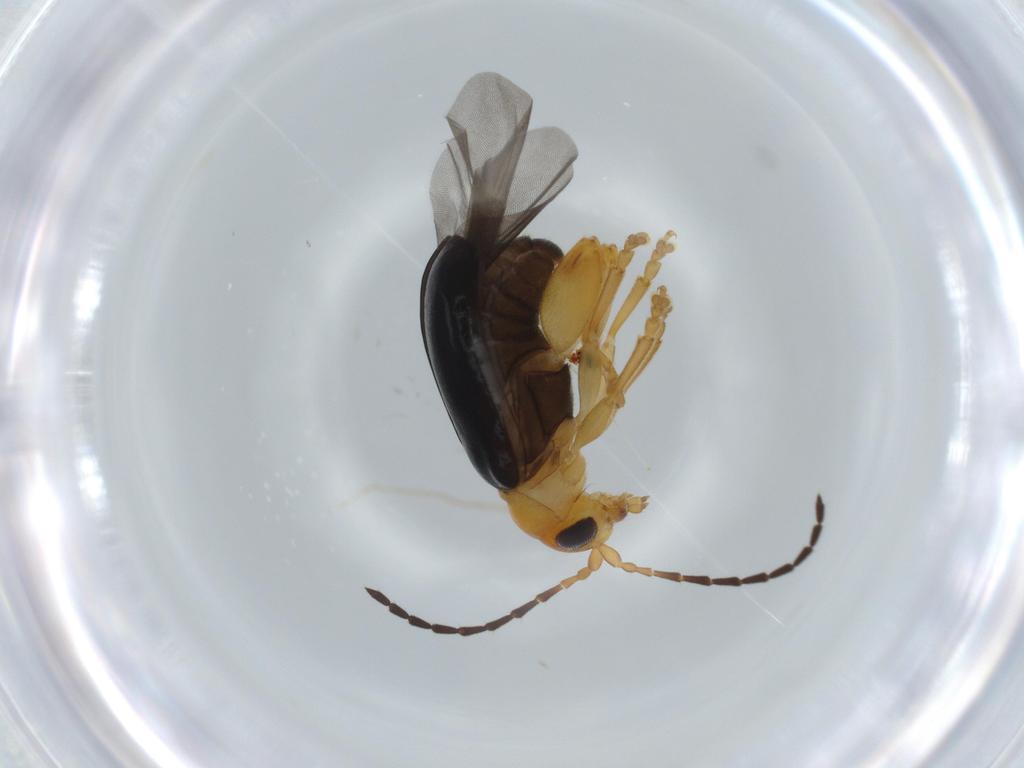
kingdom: Animalia
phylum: Arthropoda
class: Insecta
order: Coleoptera
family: Chrysomelidae
